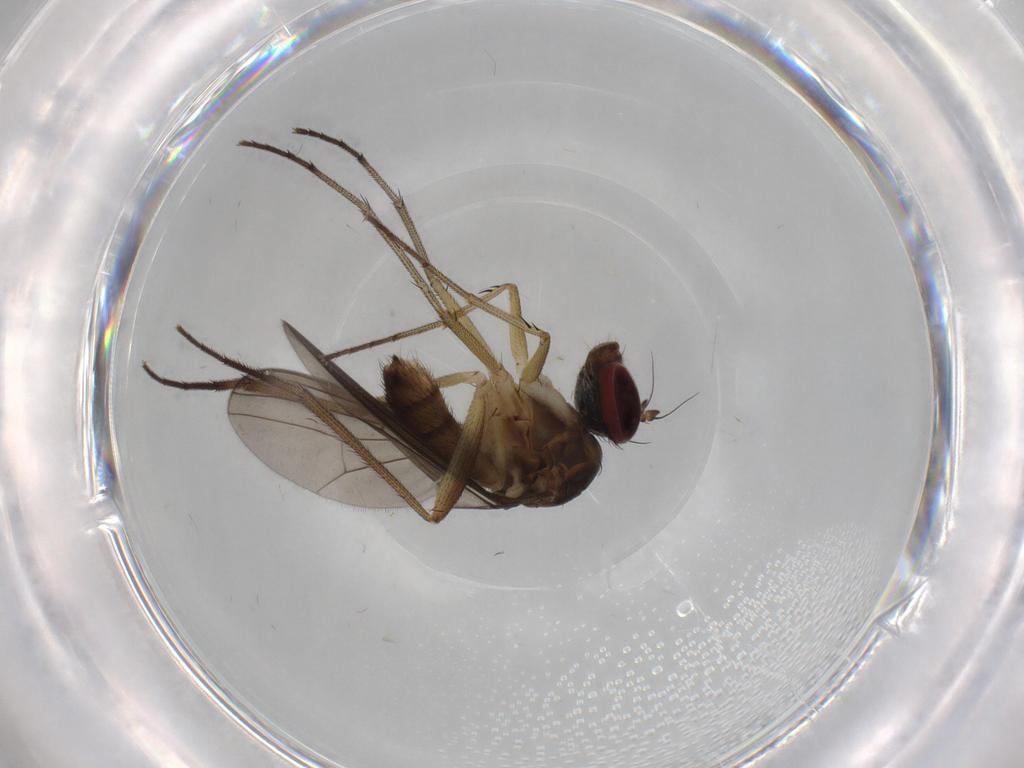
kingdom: Animalia
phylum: Arthropoda
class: Insecta
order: Diptera
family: Dolichopodidae
